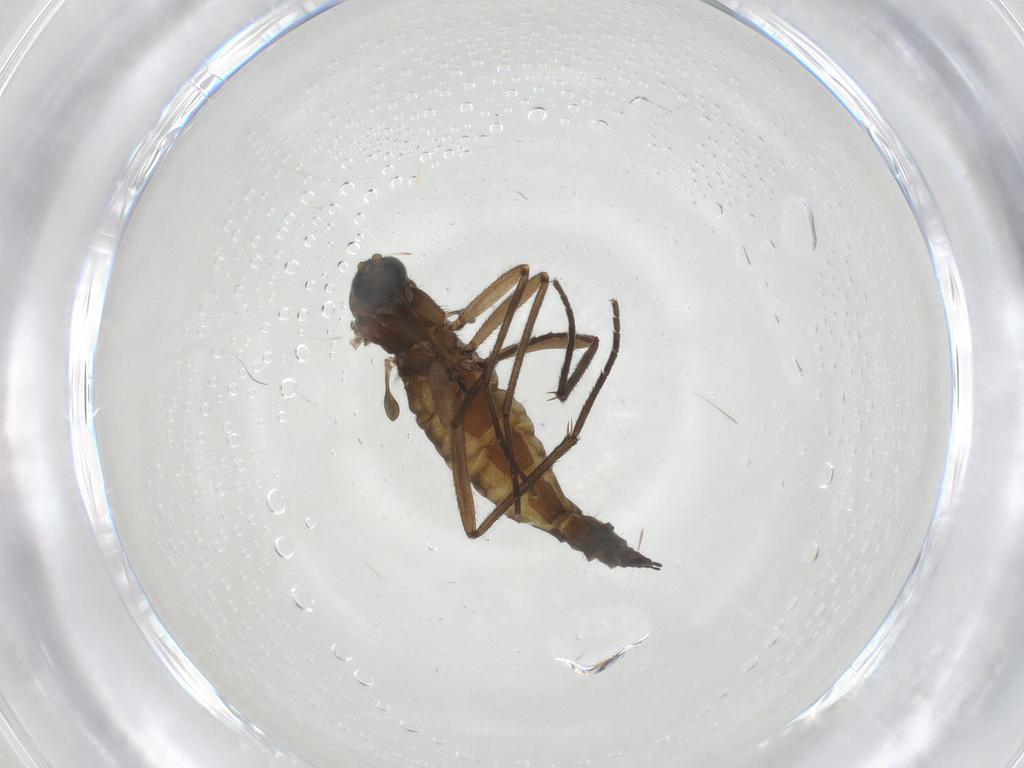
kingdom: Animalia
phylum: Arthropoda
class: Insecta
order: Diptera
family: Sciaridae
